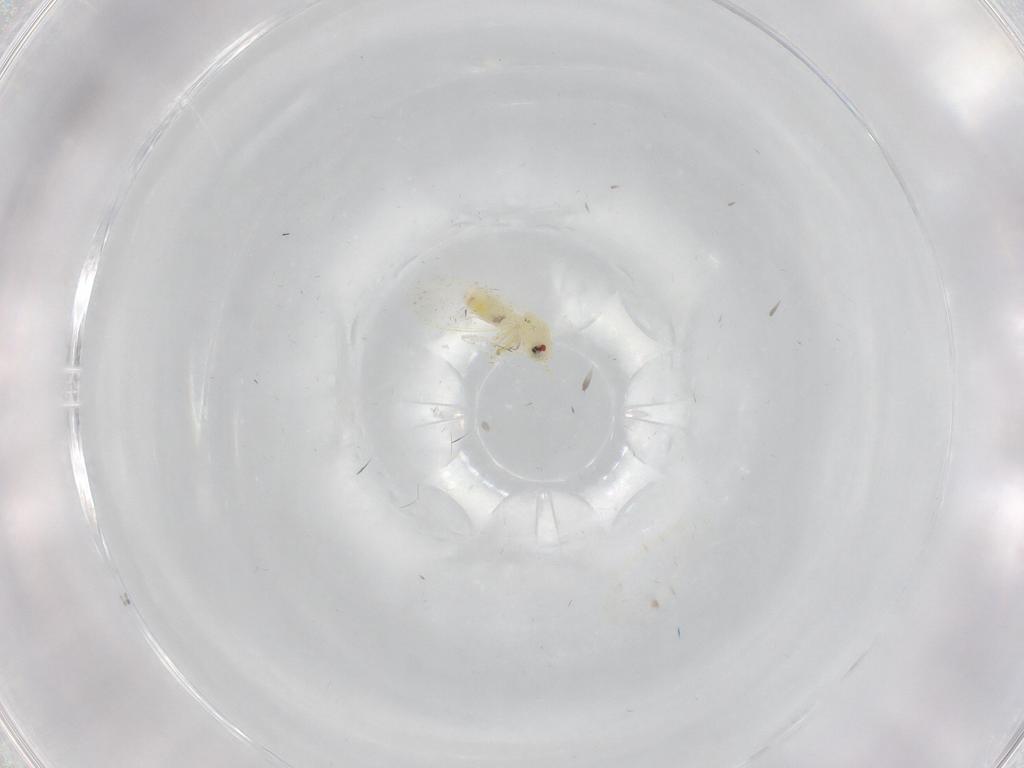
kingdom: Animalia
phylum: Arthropoda
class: Insecta
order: Hemiptera
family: Aleyrodidae
